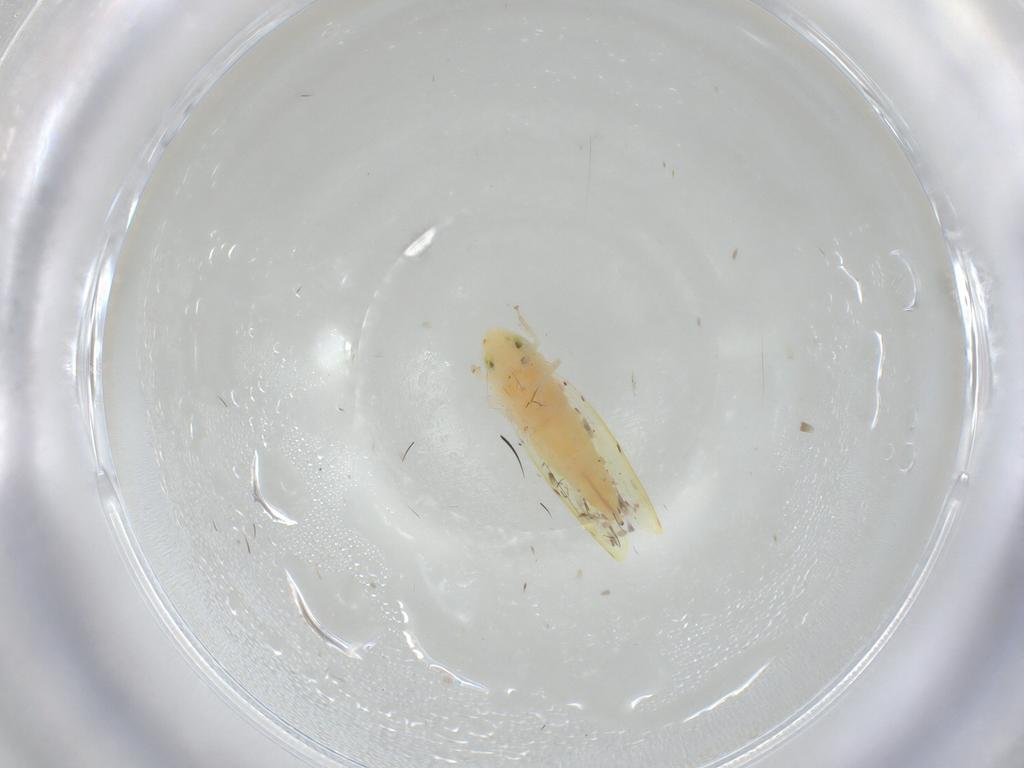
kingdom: Animalia
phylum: Arthropoda
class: Insecta
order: Hemiptera
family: Cicadellidae
